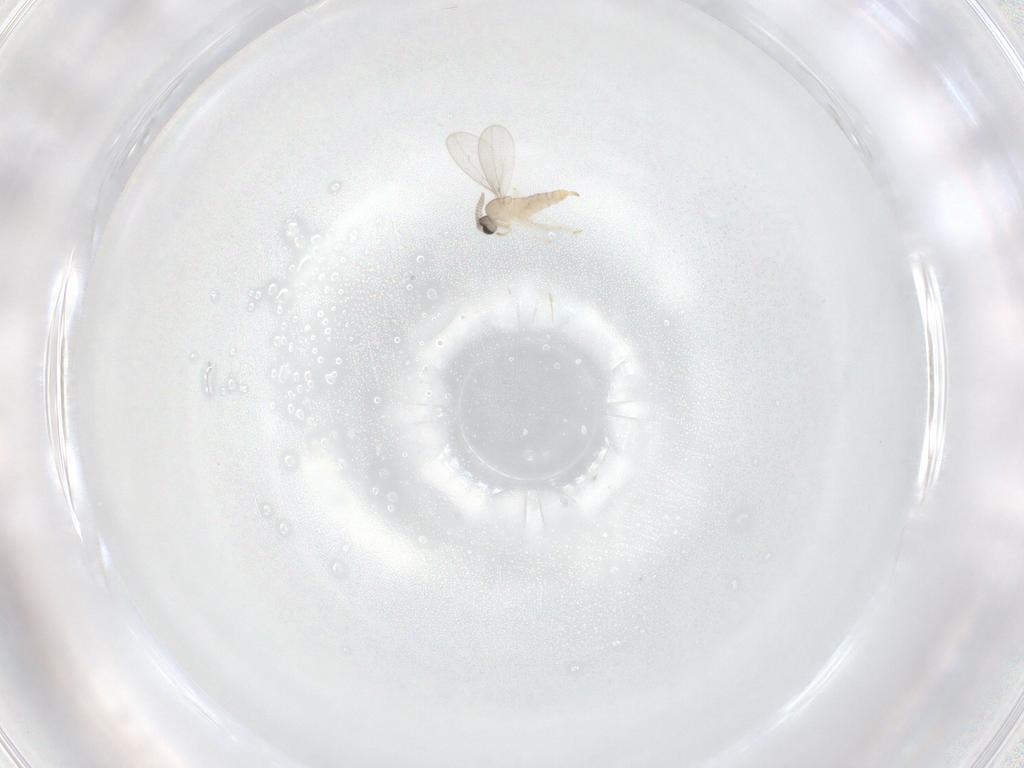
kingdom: Animalia
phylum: Arthropoda
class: Insecta
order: Diptera
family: Cecidomyiidae
